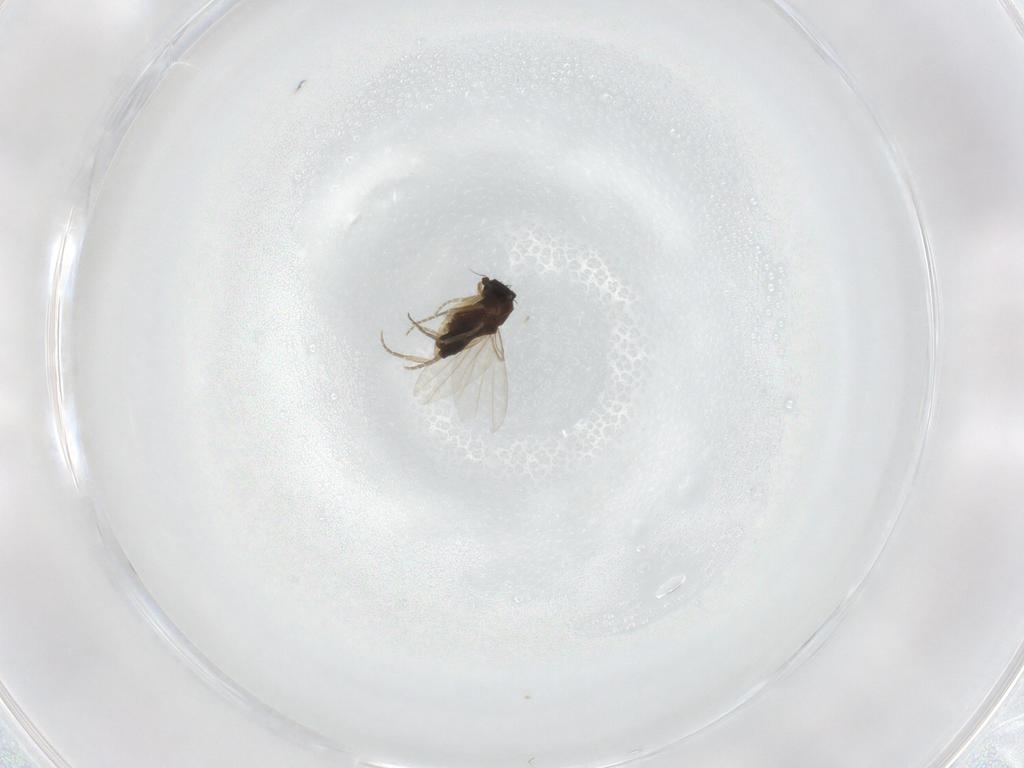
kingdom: Animalia
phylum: Arthropoda
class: Insecta
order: Diptera
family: Phoridae
